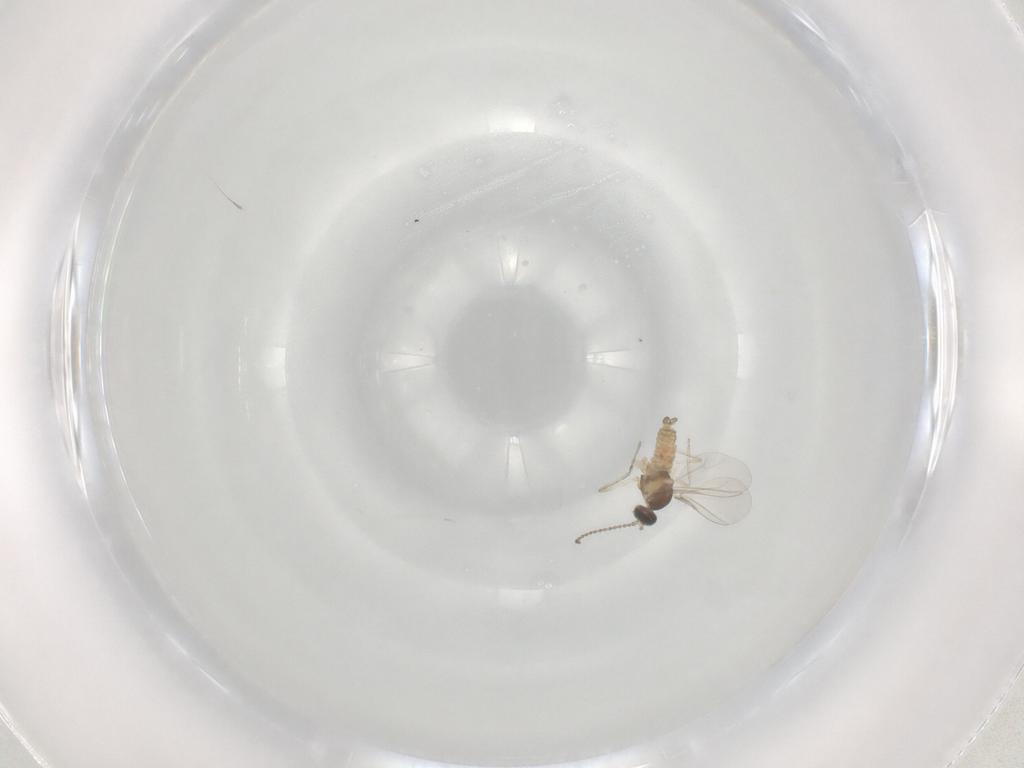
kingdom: Animalia
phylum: Arthropoda
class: Insecta
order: Diptera
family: Cecidomyiidae
